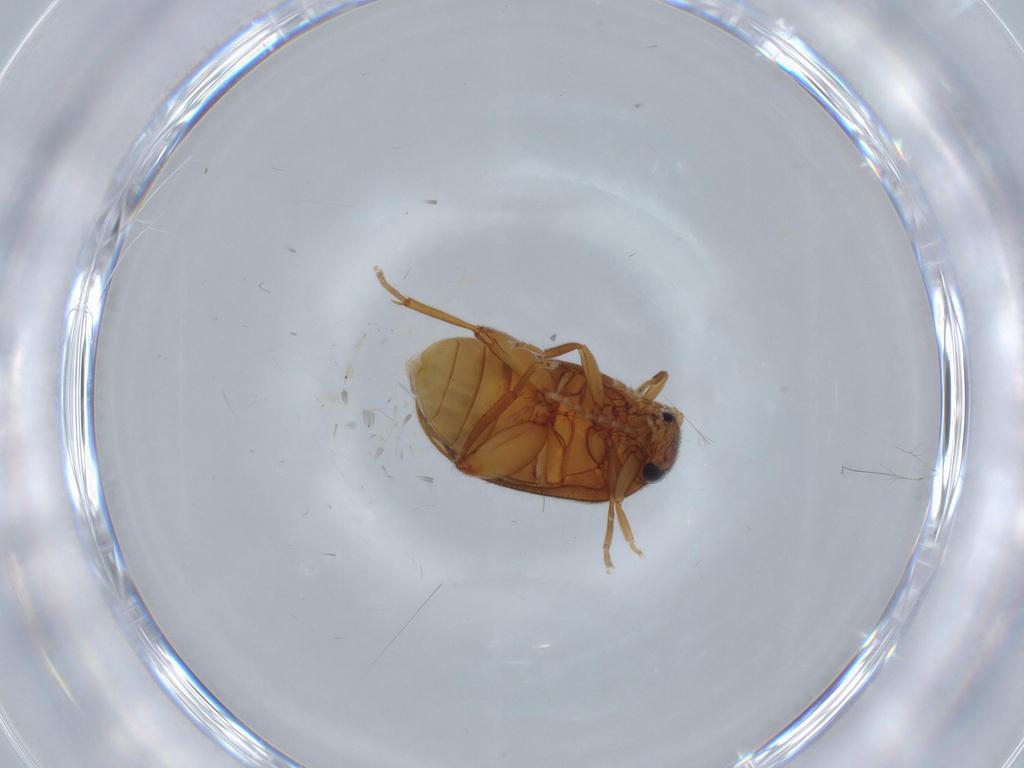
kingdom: Animalia
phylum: Arthropoda
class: Insecta
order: Coleoptera
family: Scirtidae
